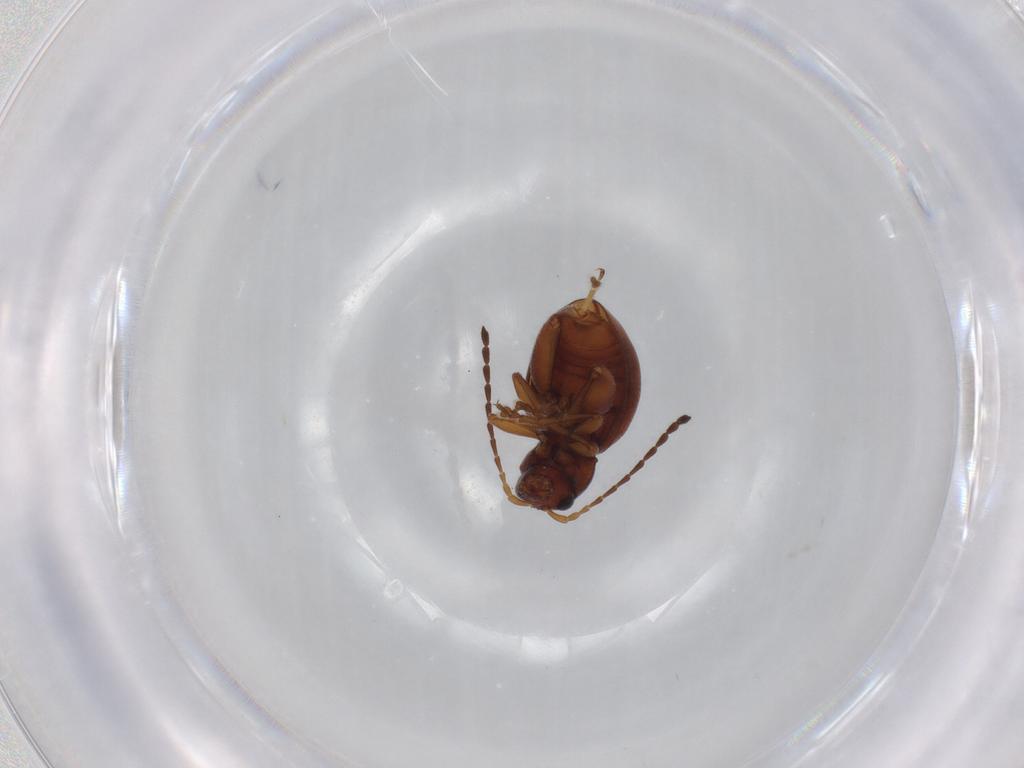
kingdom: Animalia
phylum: Arthropoda
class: Insecta
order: Coleoptera
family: Chrysomelidae
